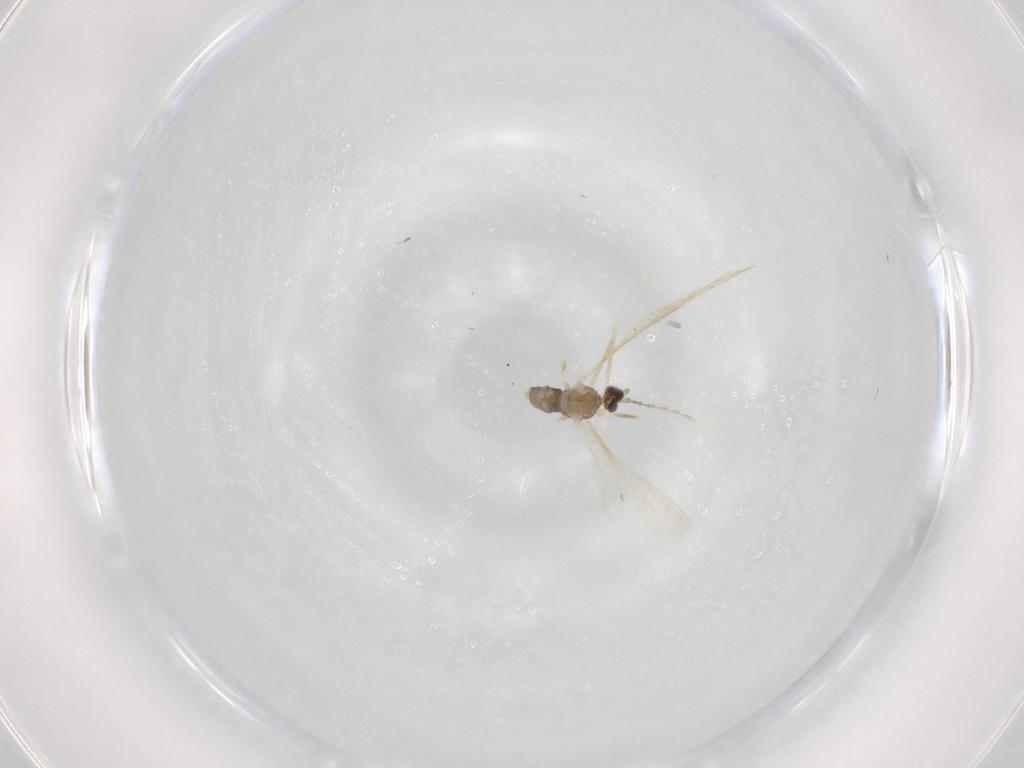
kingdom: Animalia
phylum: Arthropoda
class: Insecta
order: Diptera
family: Cecidomyiidae
